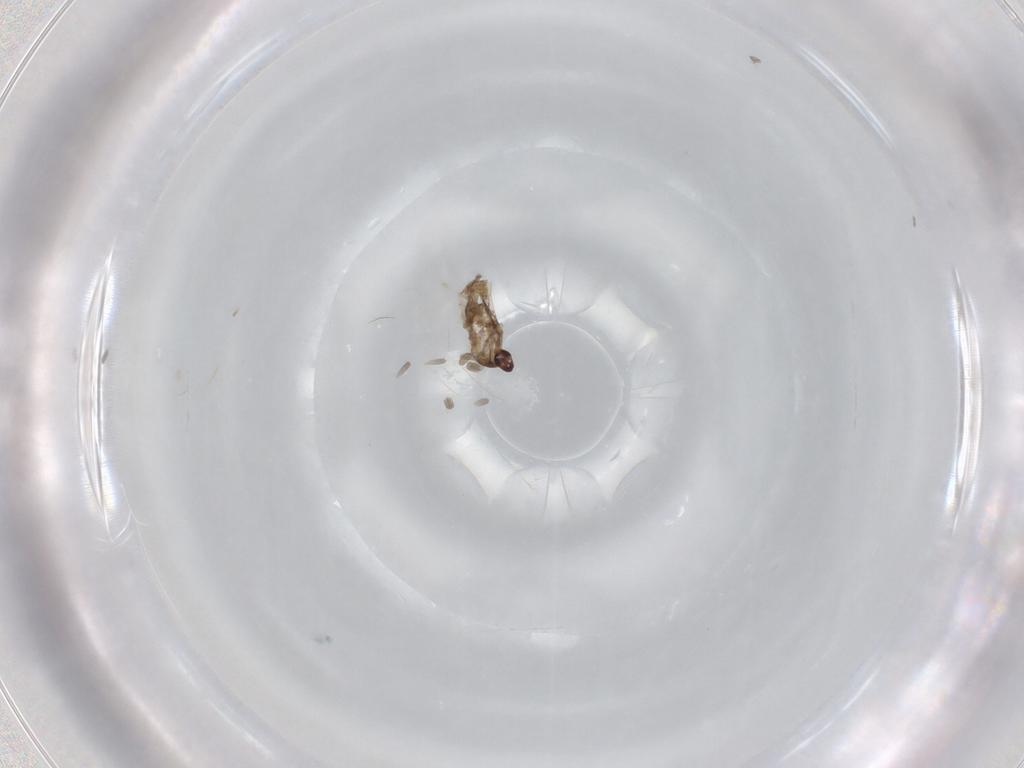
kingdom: Animalia
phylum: Arthropoda
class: Insecta
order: Diptera
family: Cecidomyiidae
